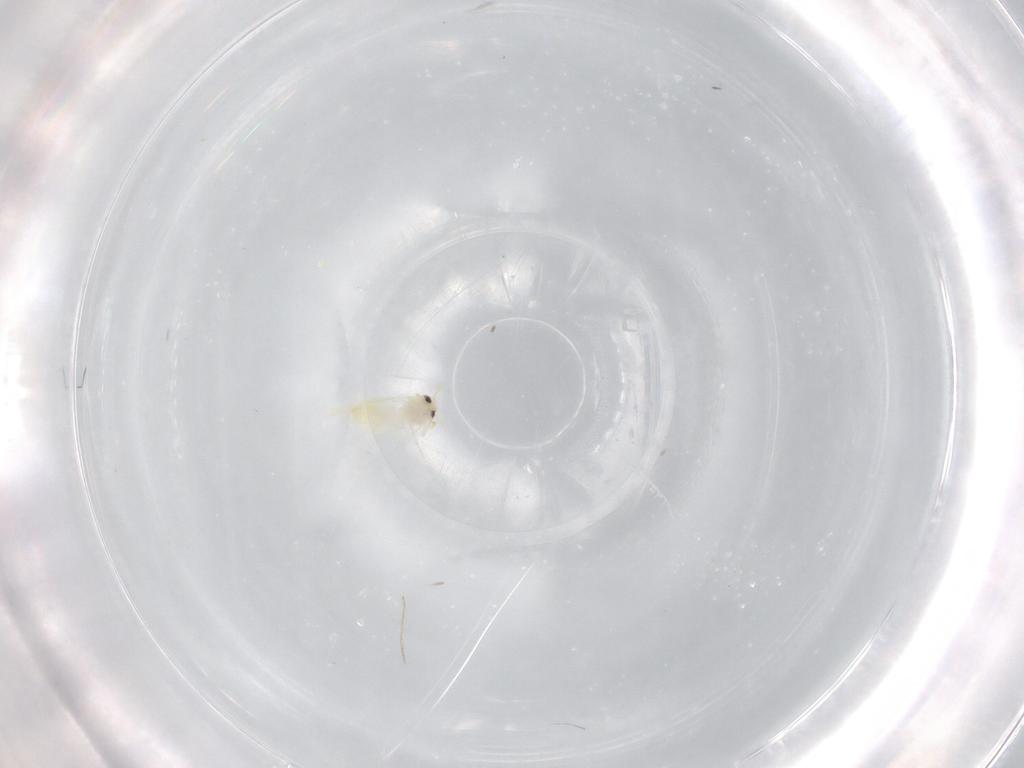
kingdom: Animalia
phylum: Arthropoda
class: Insecta
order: Hemiptera
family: Aleyrodidae
